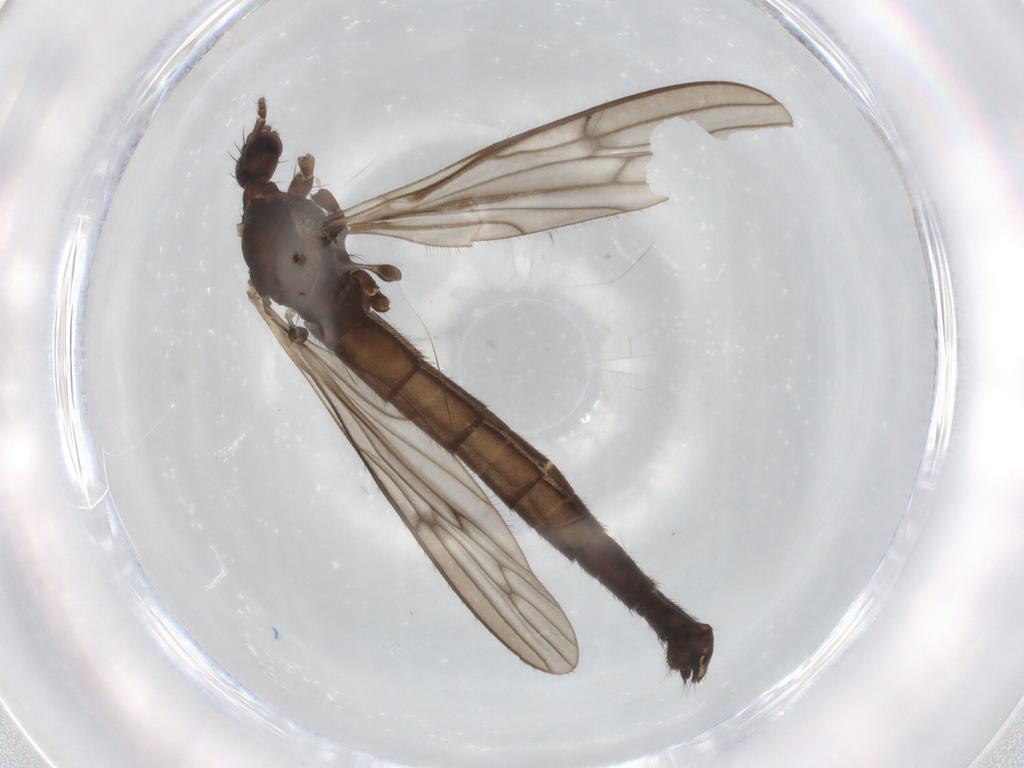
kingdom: Animalia
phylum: Arthropoda
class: Insecta
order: Diptera
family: Limoniidae
